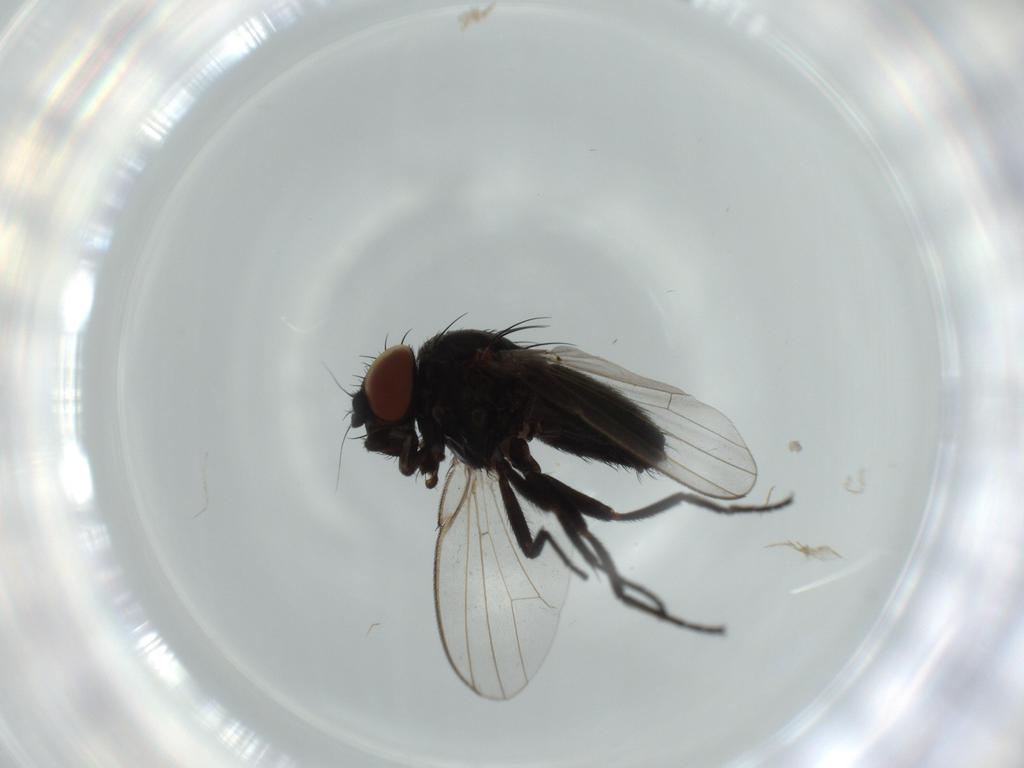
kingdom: Animalia
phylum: Arthropoda
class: Insecta
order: Diptera
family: Milichiidae
